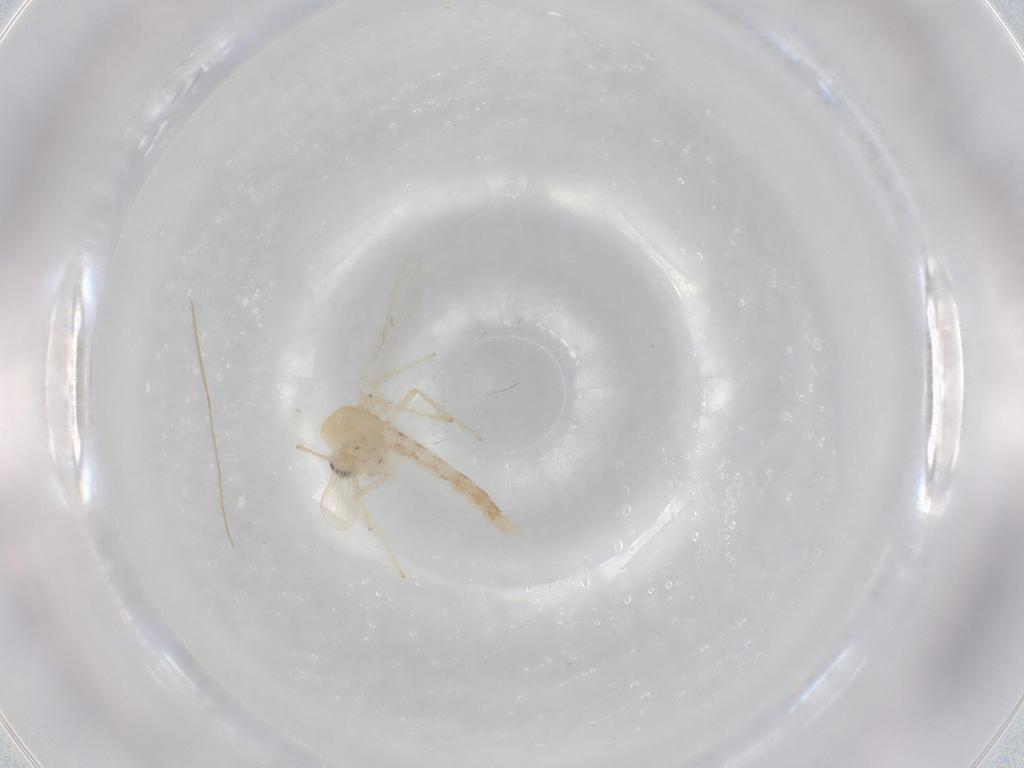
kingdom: Animalia
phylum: Arthropoda
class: Insecta
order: Diptera
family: Chironomidae
